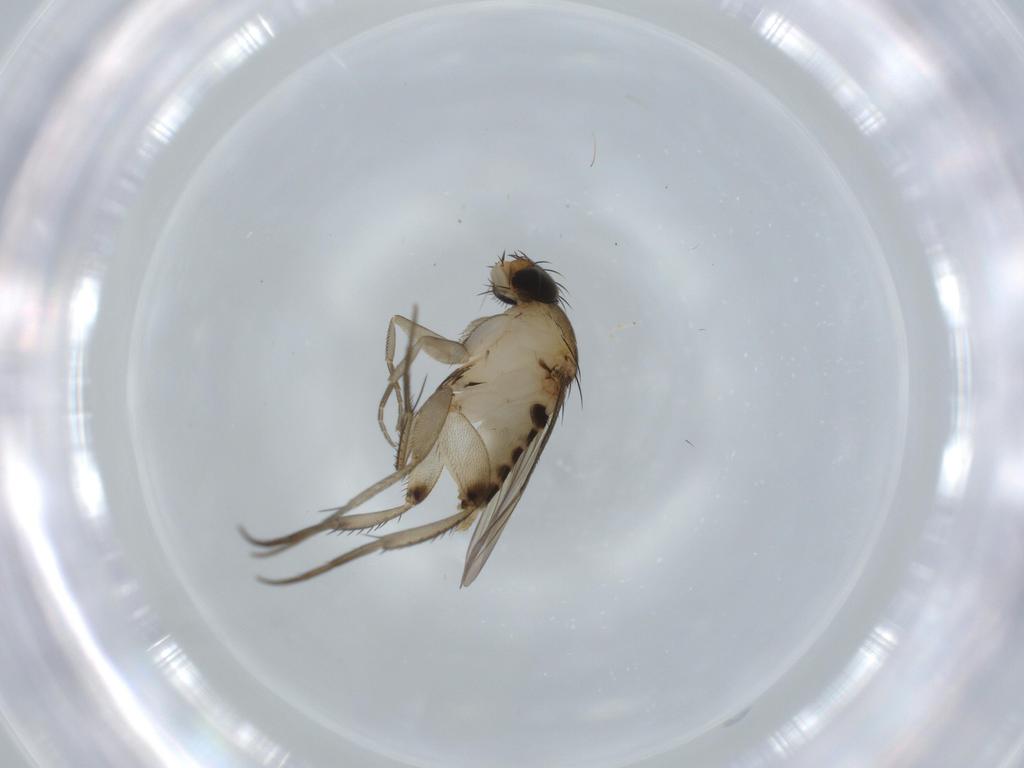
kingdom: Animalia
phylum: Arthropoda
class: Insecta
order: Diptera
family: Phoridae
